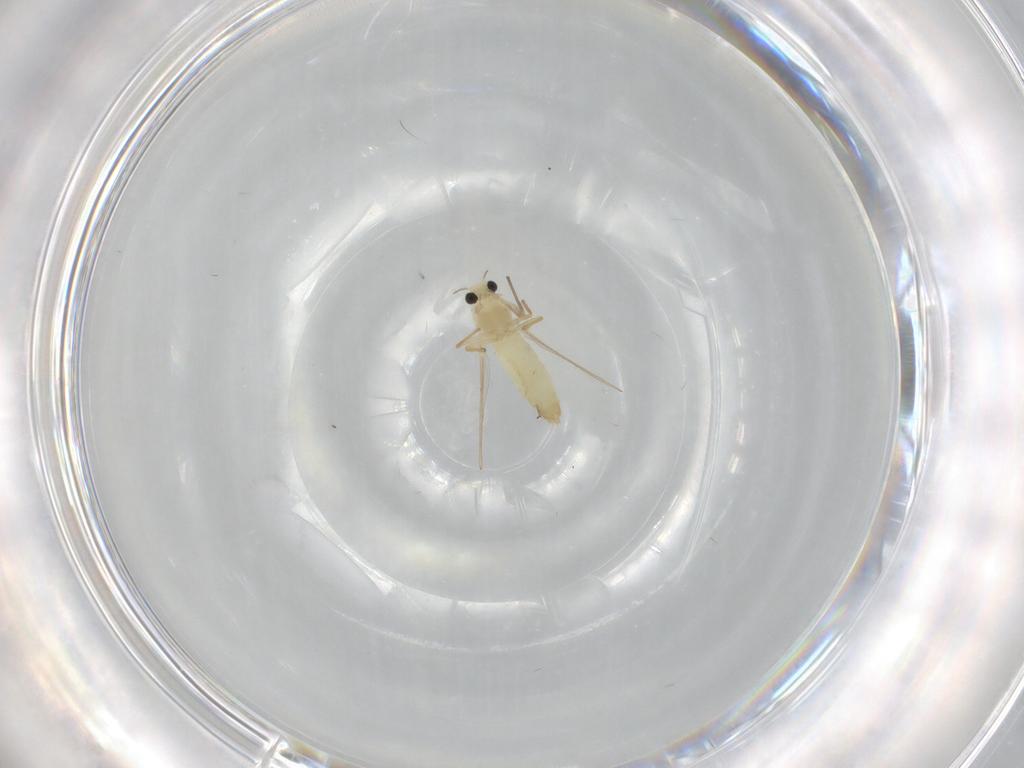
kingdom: Animalia
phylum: Arthropoda
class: Insecta
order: Diptera
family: Chironomidae
